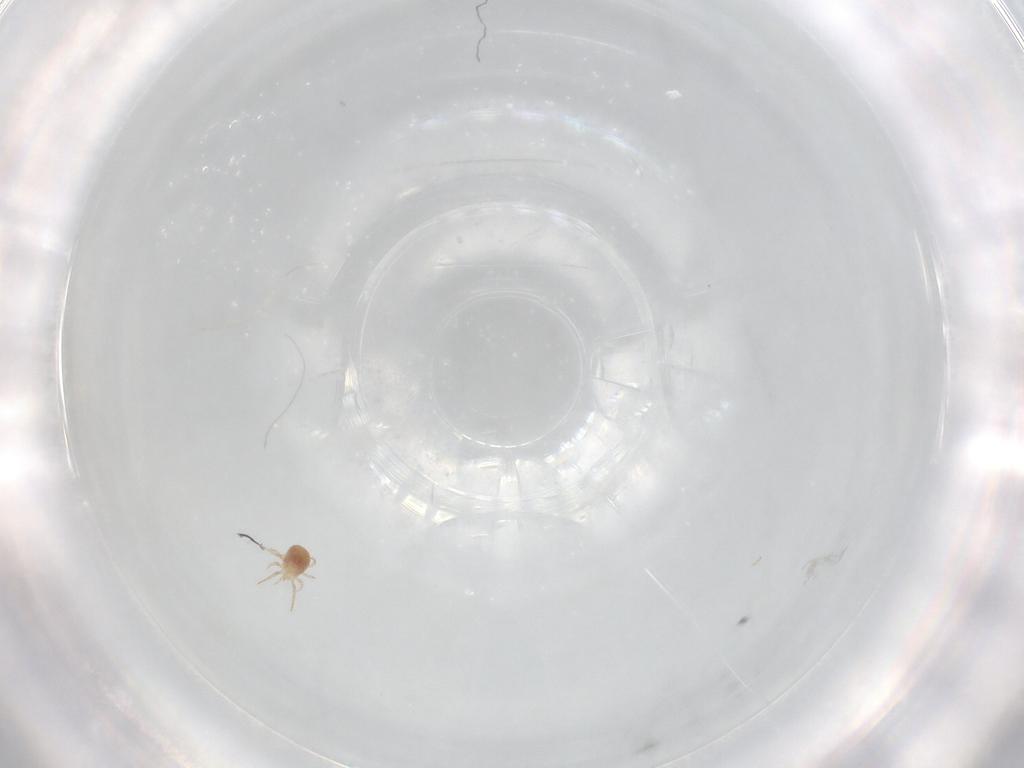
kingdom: Animalia
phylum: Arthropoda
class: Arachnida
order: Mesostigmata
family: Phytoseiidae
